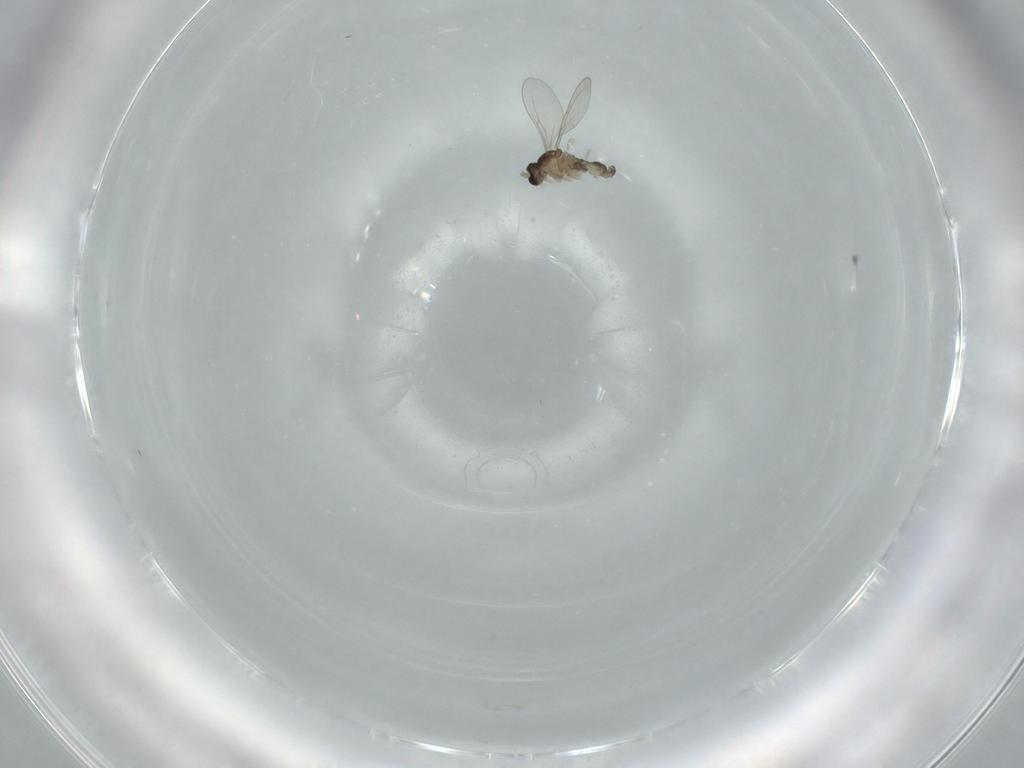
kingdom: Animalia
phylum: Arthropoda
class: Insecta
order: Diptera
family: Cecidomyiidae
